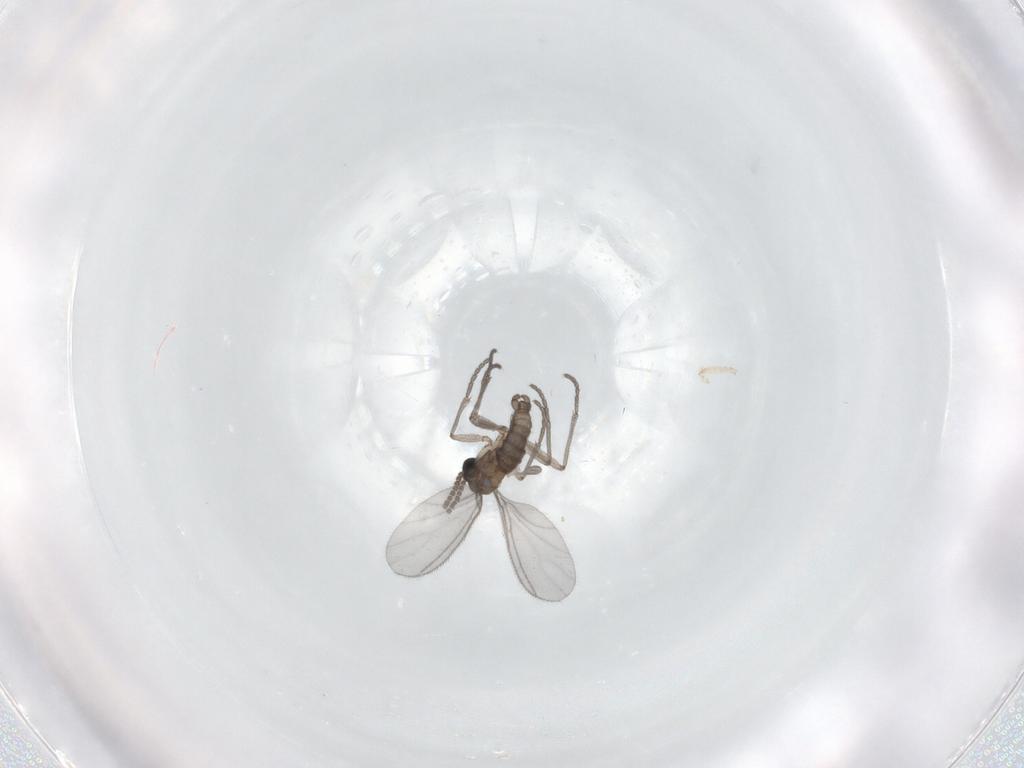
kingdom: Animalia
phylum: Arthropoda
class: Insecta
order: Diptera
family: Sciaridae
